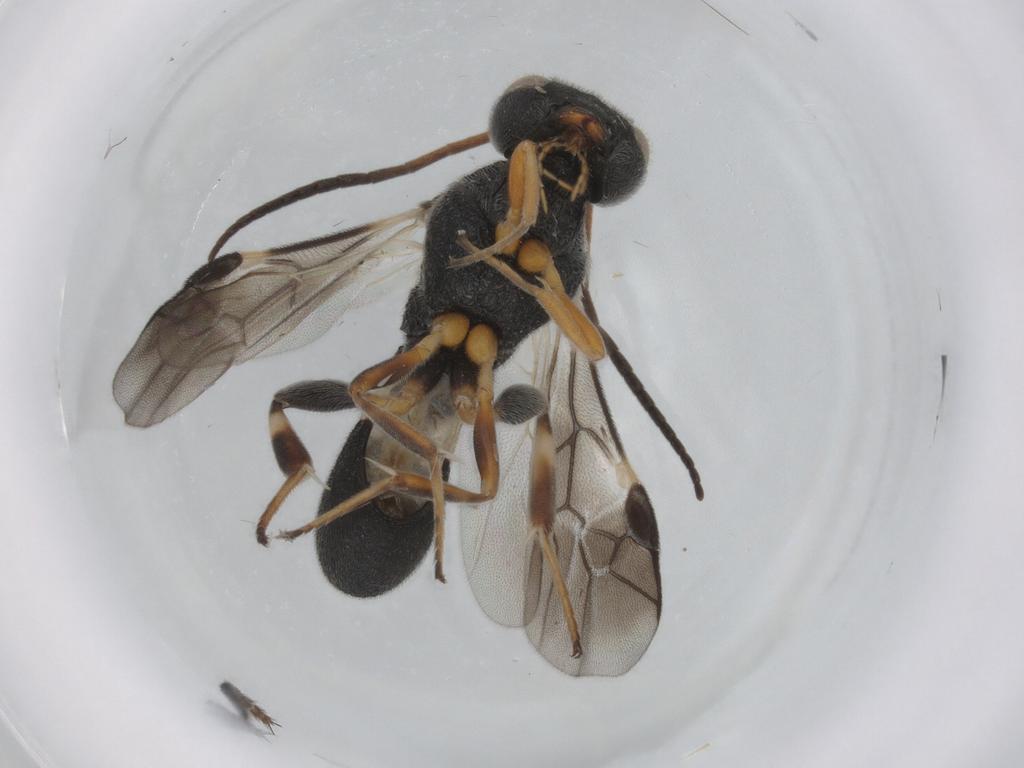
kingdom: Animalia
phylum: Arthropoda
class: Insecta
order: Hymenoptera
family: Braconidae
